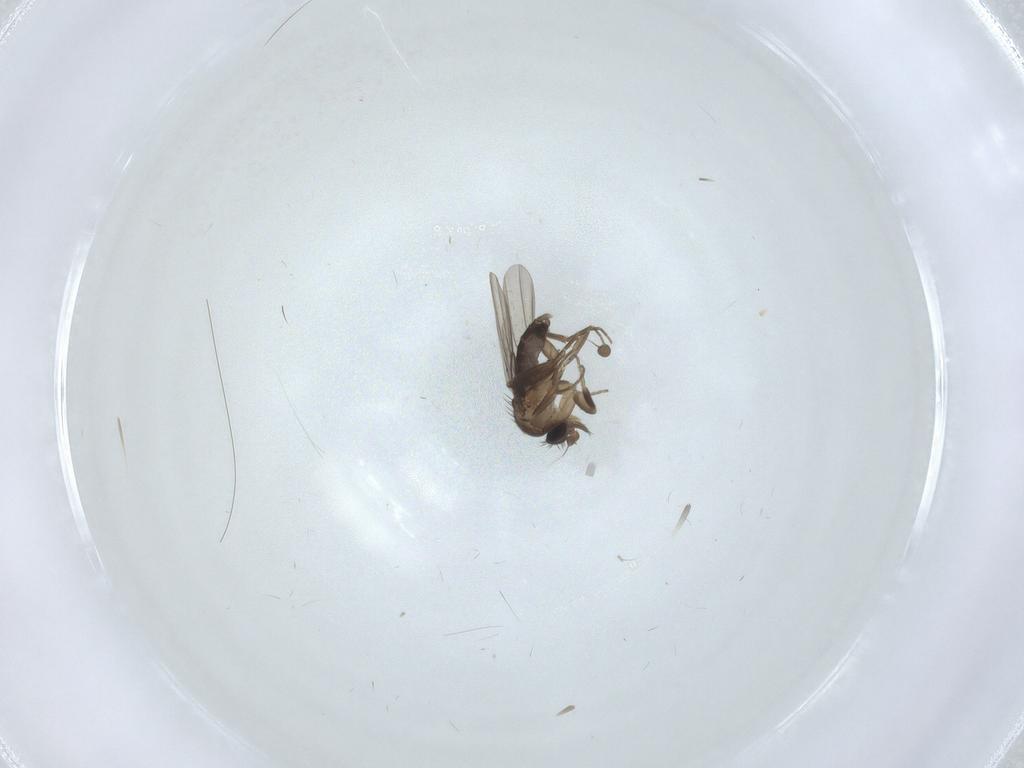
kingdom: Animalia
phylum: Arthropoda
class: Insecta
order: Diptera
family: Phoridae
